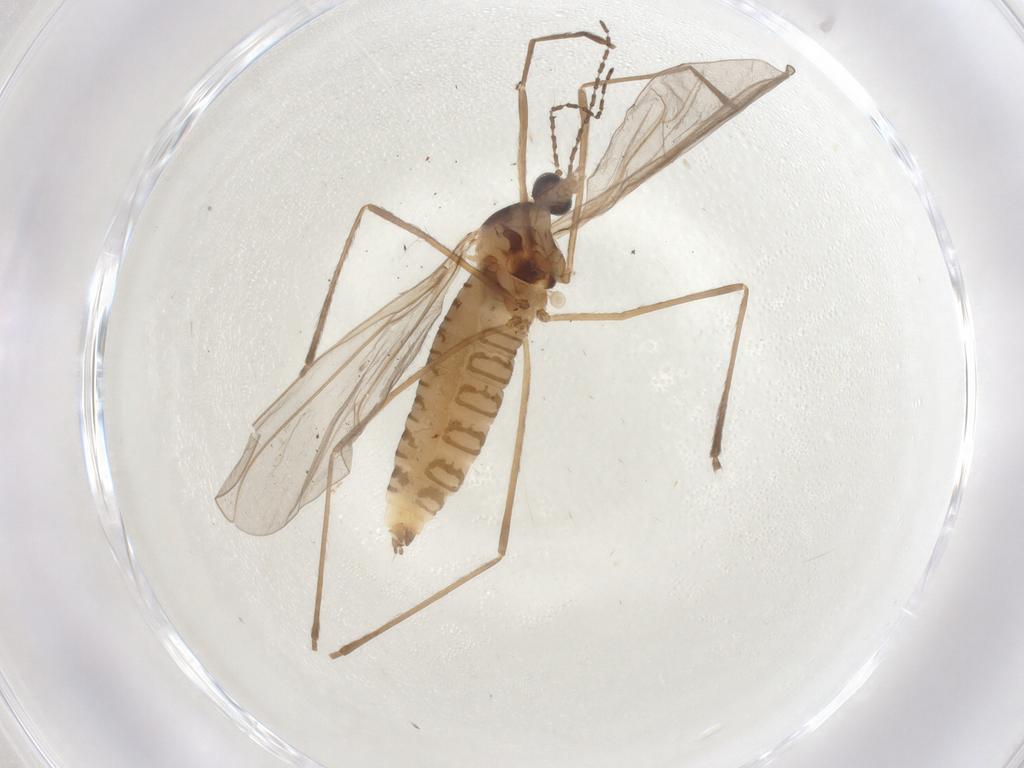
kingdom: Animalia
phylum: Arthropoda
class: Insecta
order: Diptera
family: Cecidomyiidae
